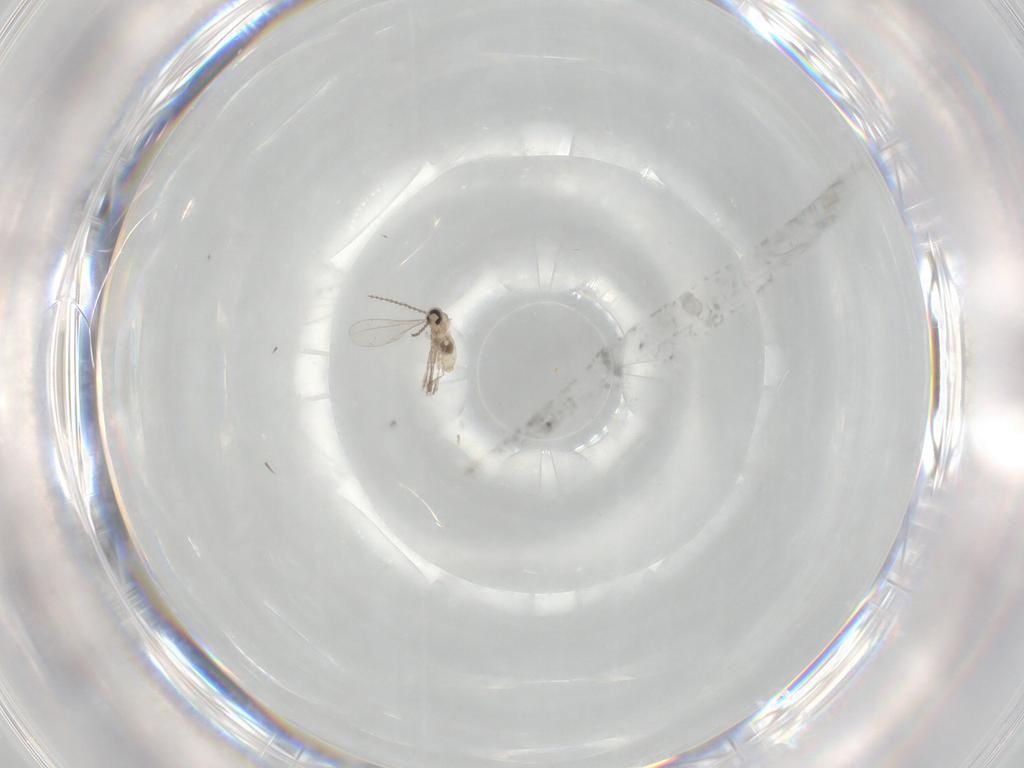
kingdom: Animalia
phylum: Arthropoda
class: Insecta
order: Diptera
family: Cecidomyiidae
